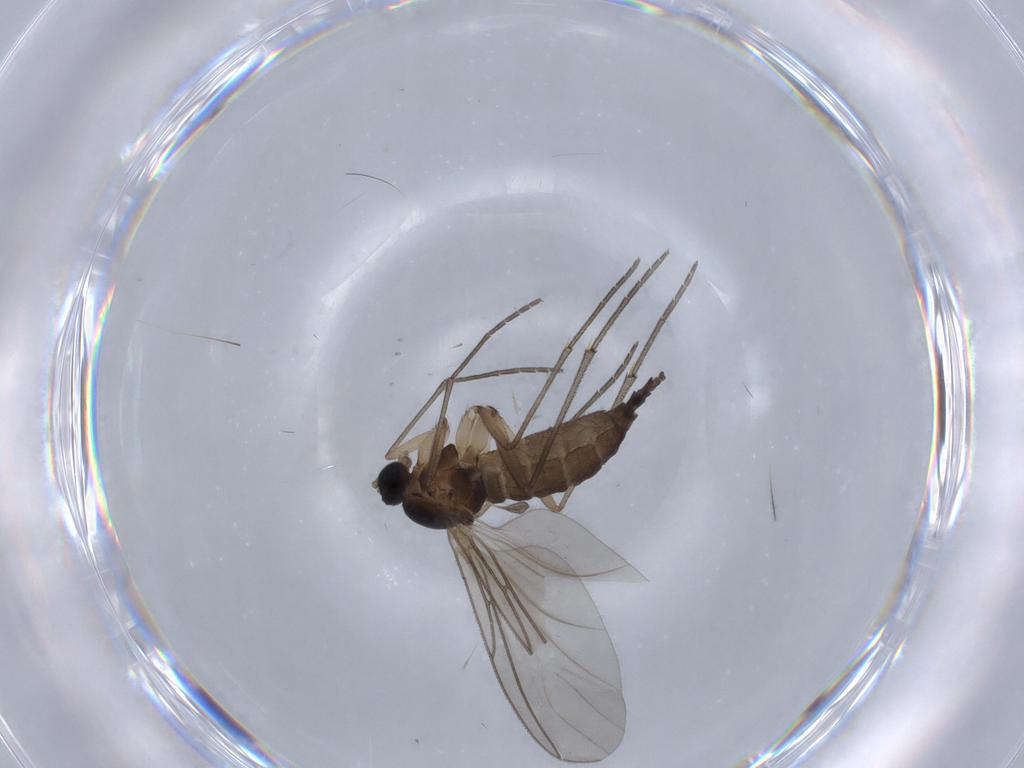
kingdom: Animalia
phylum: Arthropoda
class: Insecta
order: Diptera
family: Sciaridae
